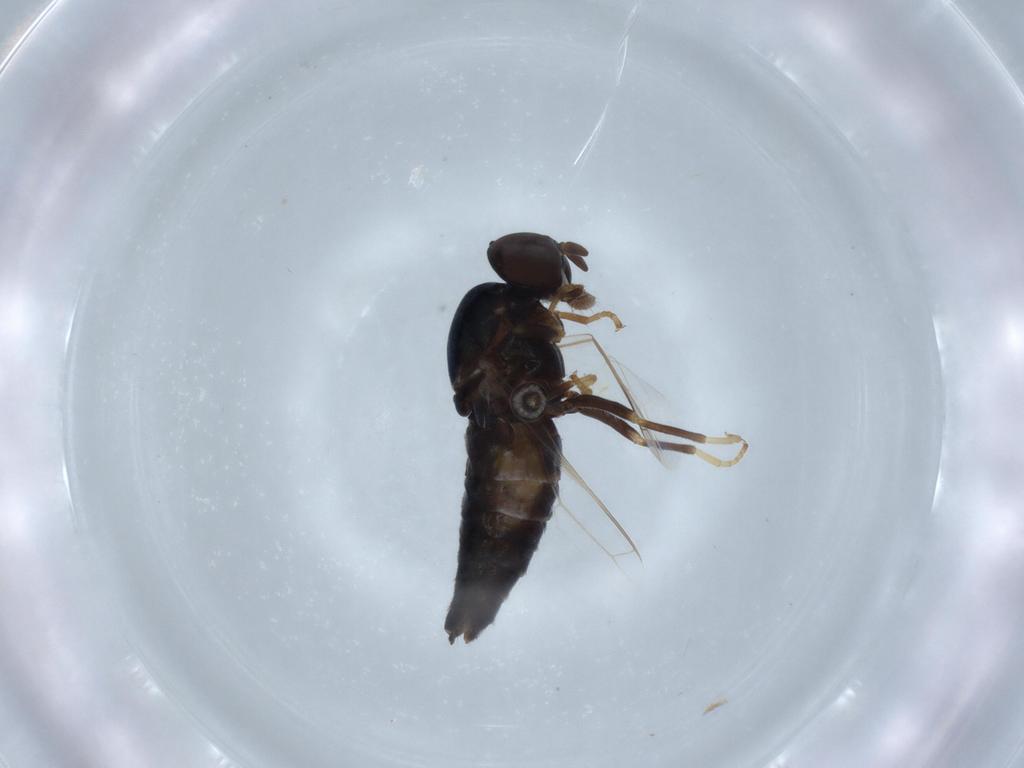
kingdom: Animalia
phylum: Arthropoda
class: Insecta
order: Diptera
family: Scenopinidae
